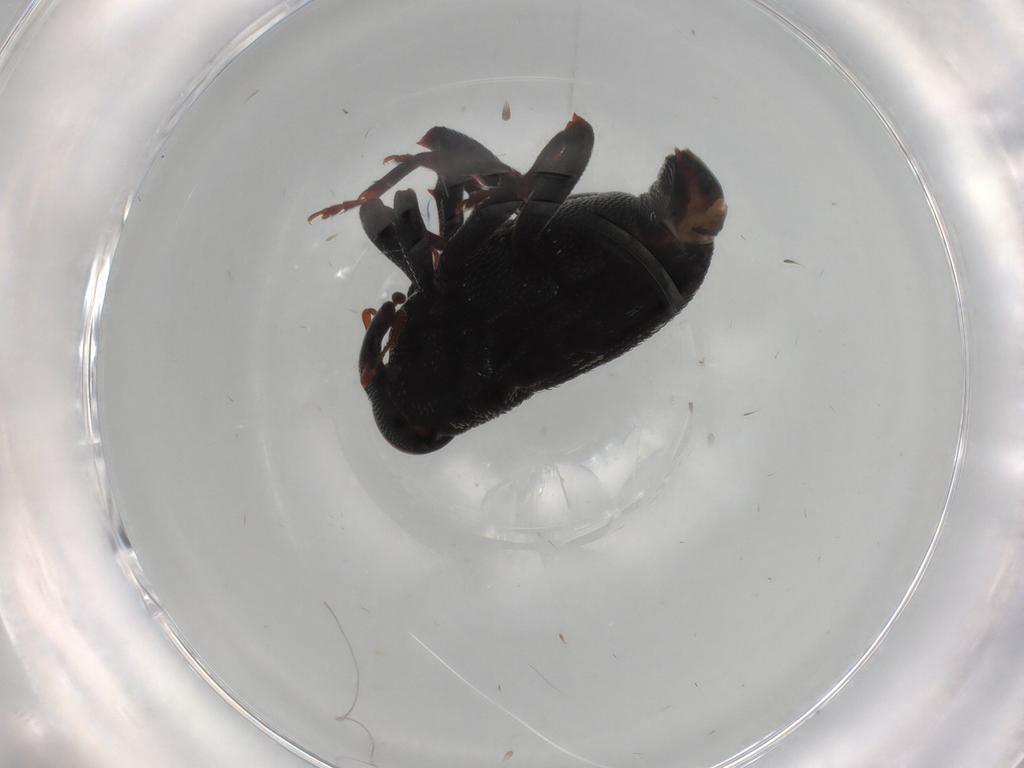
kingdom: Animalia
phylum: Arthropoda
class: Insecta
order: Coleoptera
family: Curculionidae
